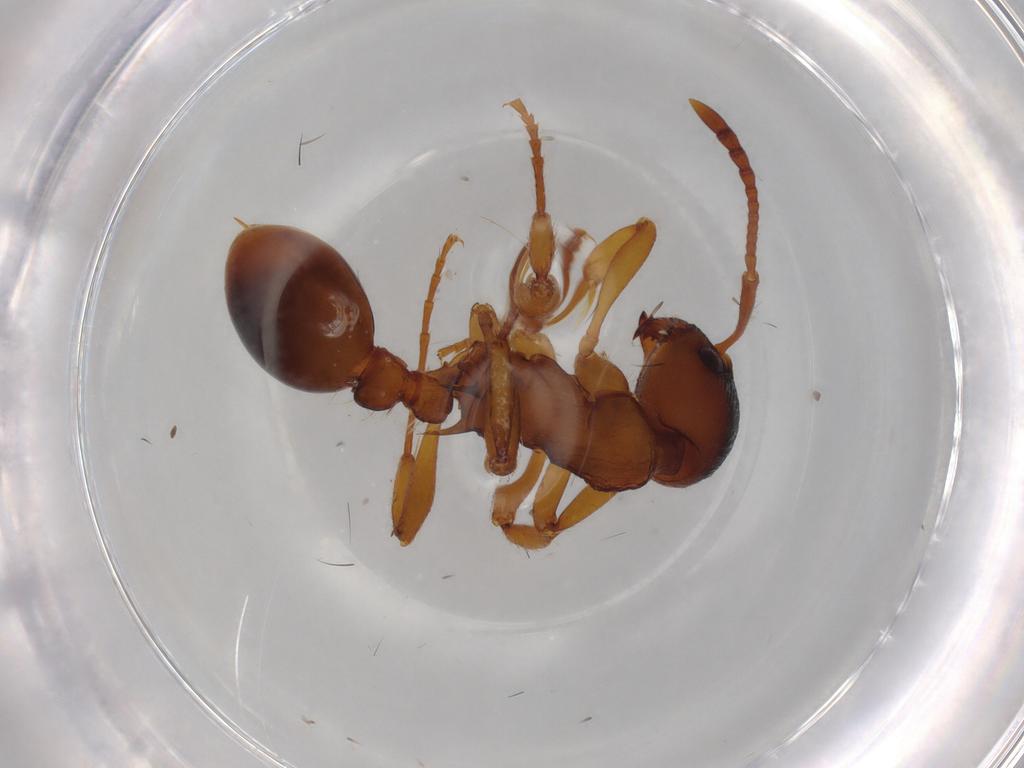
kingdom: Animalia
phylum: Arthropoda
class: Insecta
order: Hymenoptera
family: Formicidae
